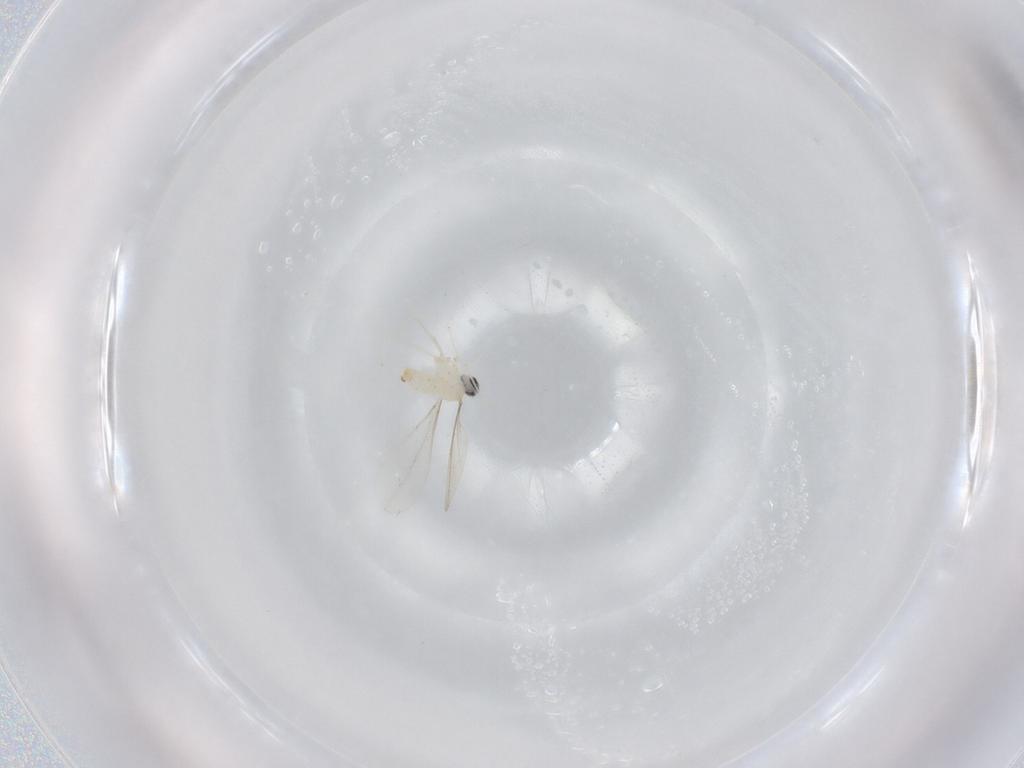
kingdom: Animalia
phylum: Arthropoda
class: Insecta
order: Diptera
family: Cecidomyiidae
